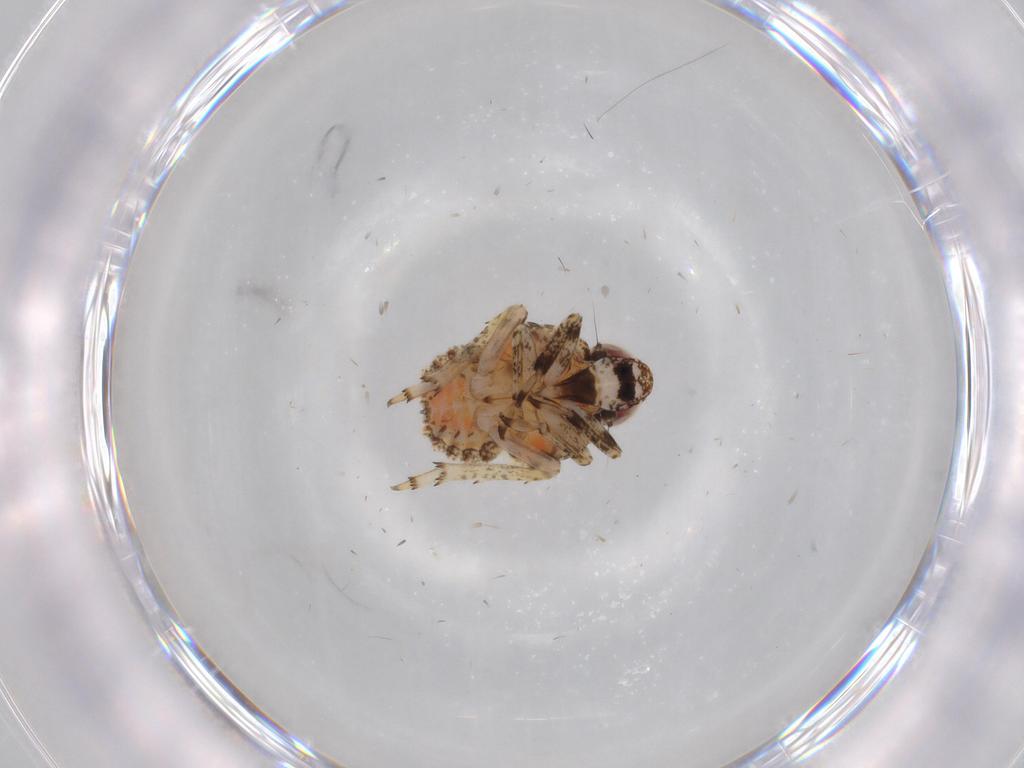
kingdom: Animalia
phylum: Arthropoda
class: Insecta
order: Hemiptera
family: Issidae
